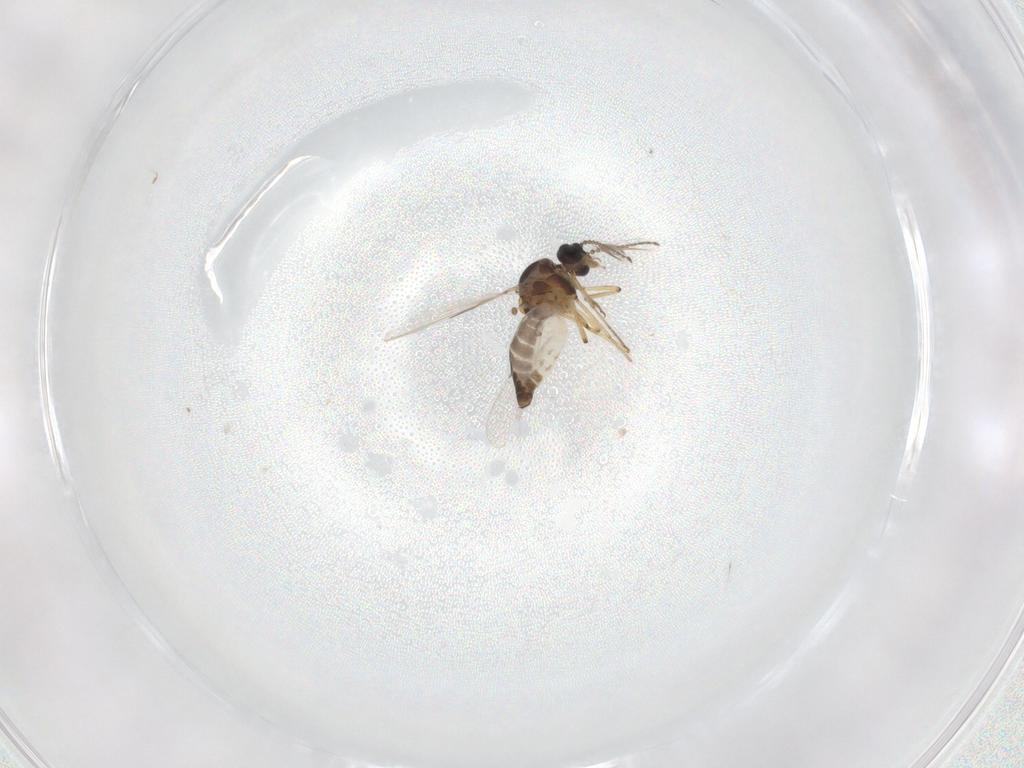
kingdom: Animalia
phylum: Arthropoda
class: Insecta
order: Diptera
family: Ceratopogonidae
